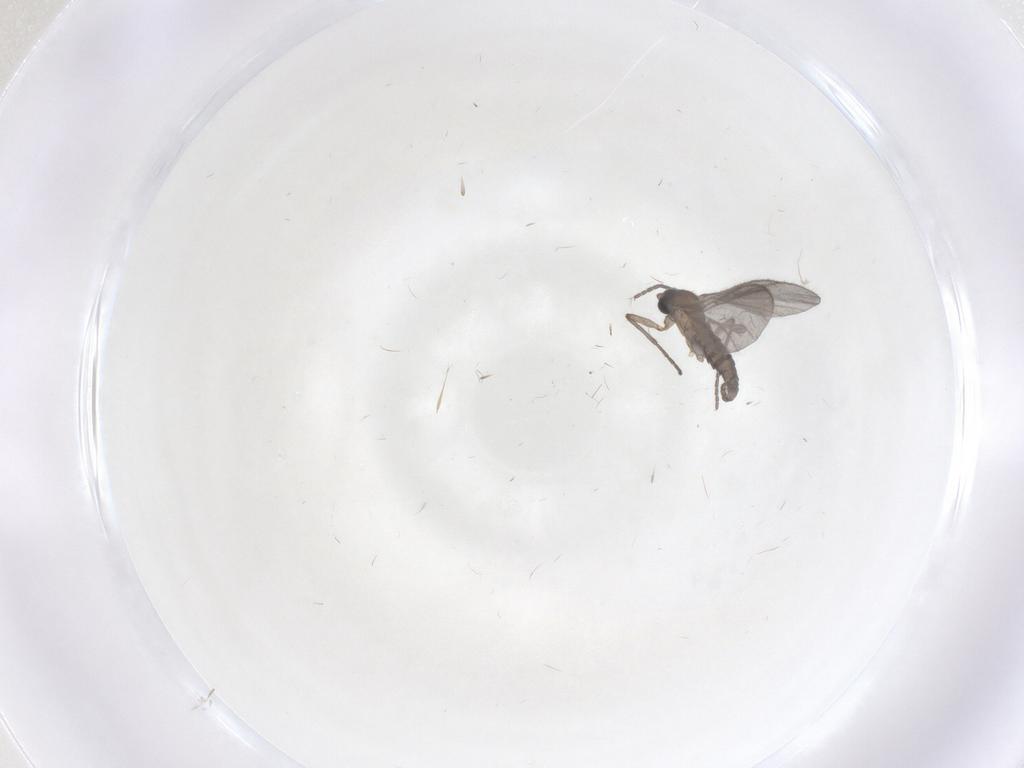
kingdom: Animalia
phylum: Arthropoda
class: Insecta
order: Diptera
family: Sciaridae
